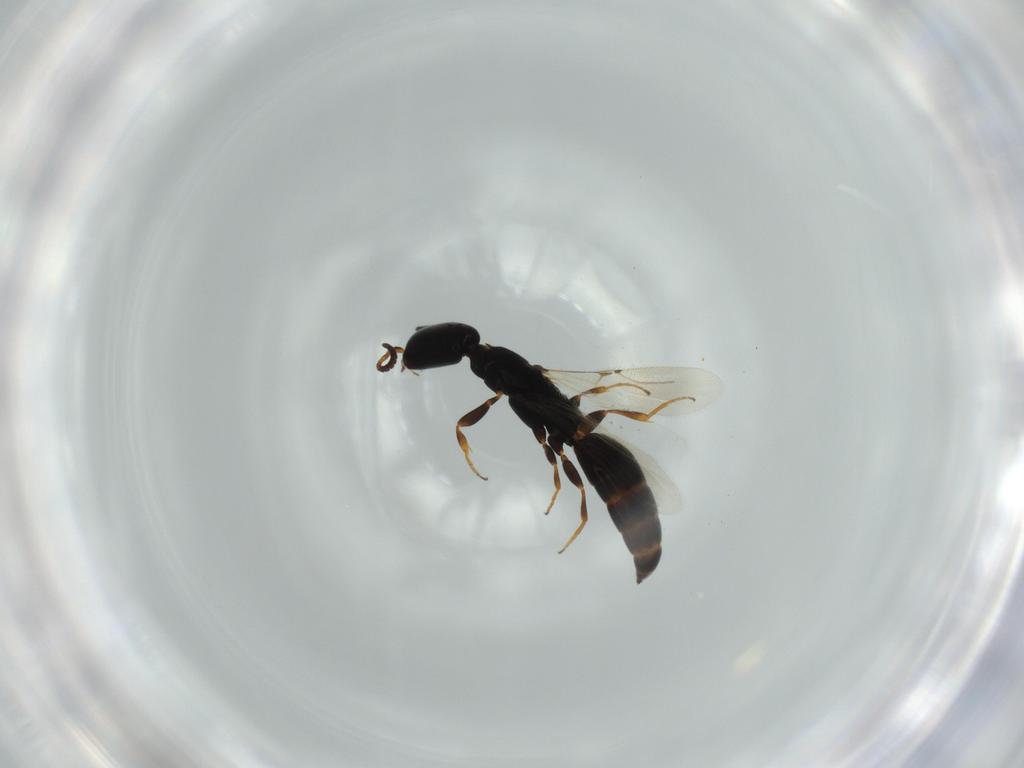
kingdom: Animalia
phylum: Arthropoda
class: Insecta
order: Hymenoptera
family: Bethylidae
